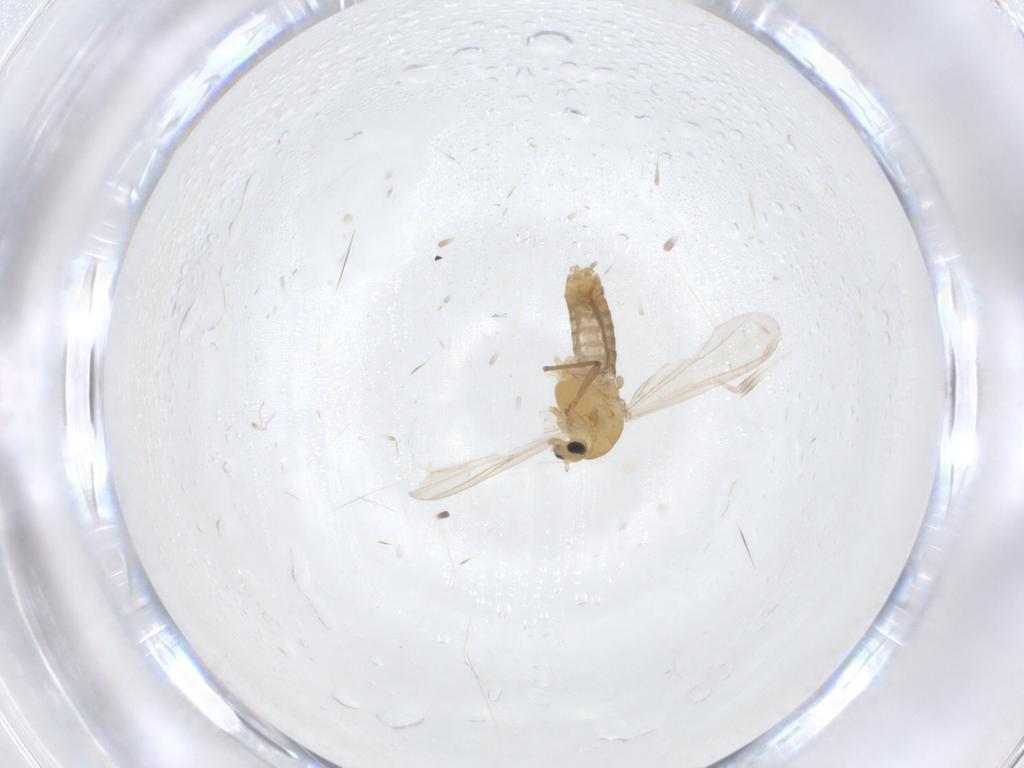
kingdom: Animalia
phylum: Arthropoda
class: Insecta
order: Diptera
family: Chironomidae
